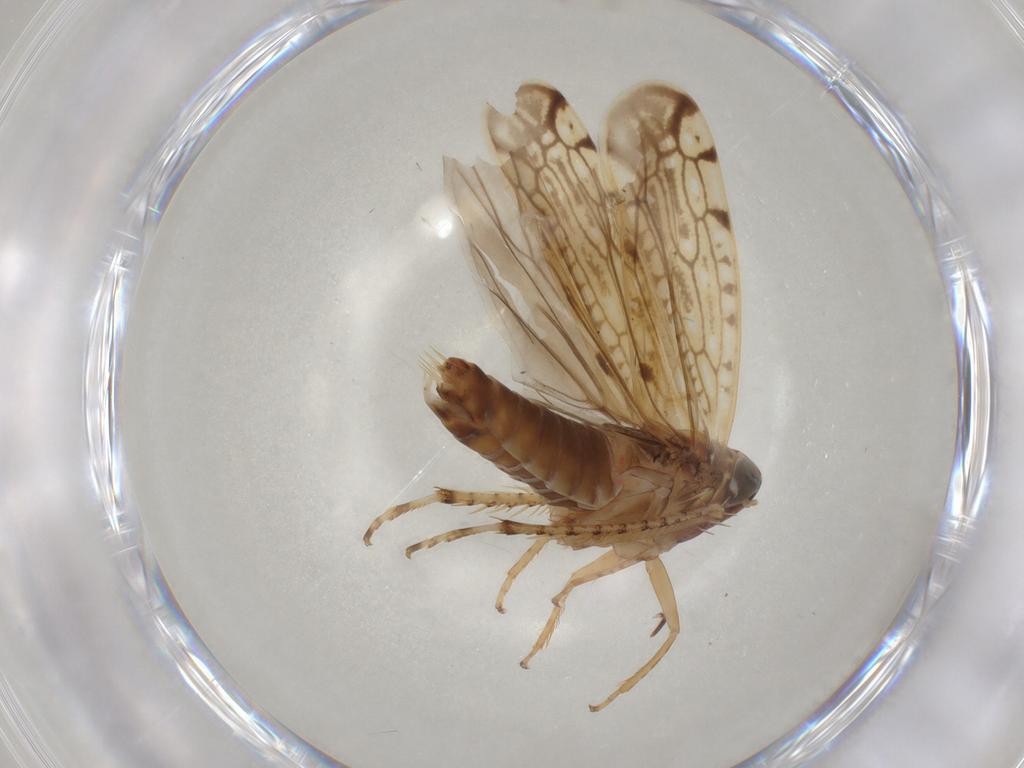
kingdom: Animalia
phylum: Arthropoda
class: Insecta
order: Hemiptera
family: Cicadellidae
